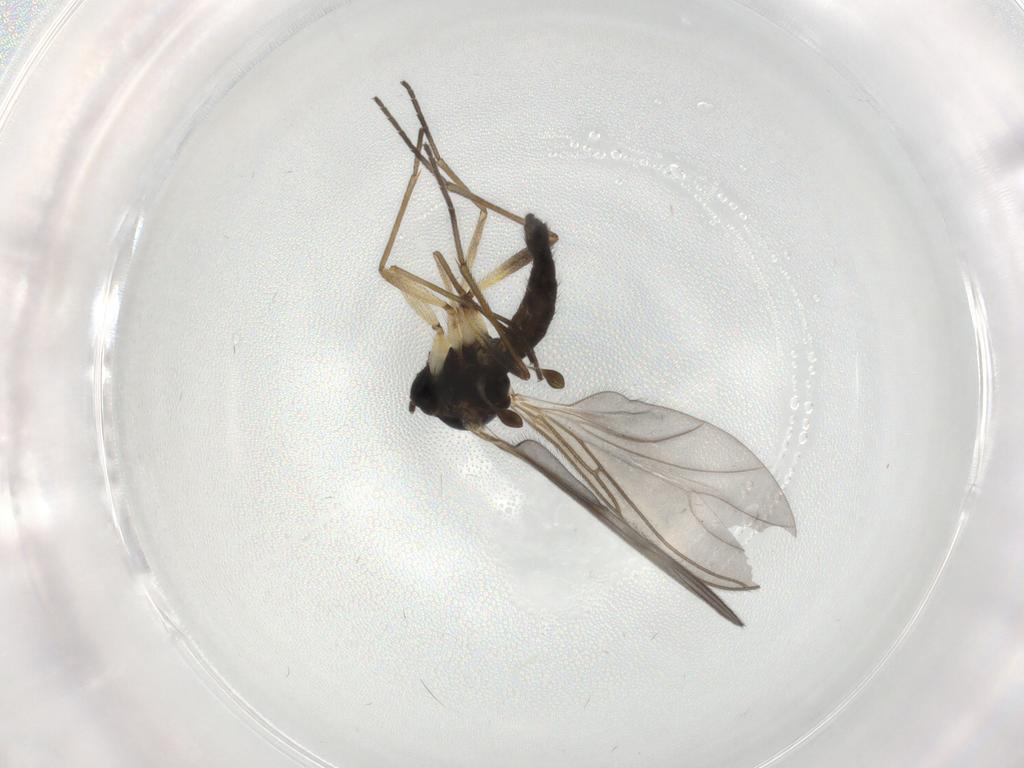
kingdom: Animalia
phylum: Arthropoda
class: Insecta
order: Diptera
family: Sciaridae
